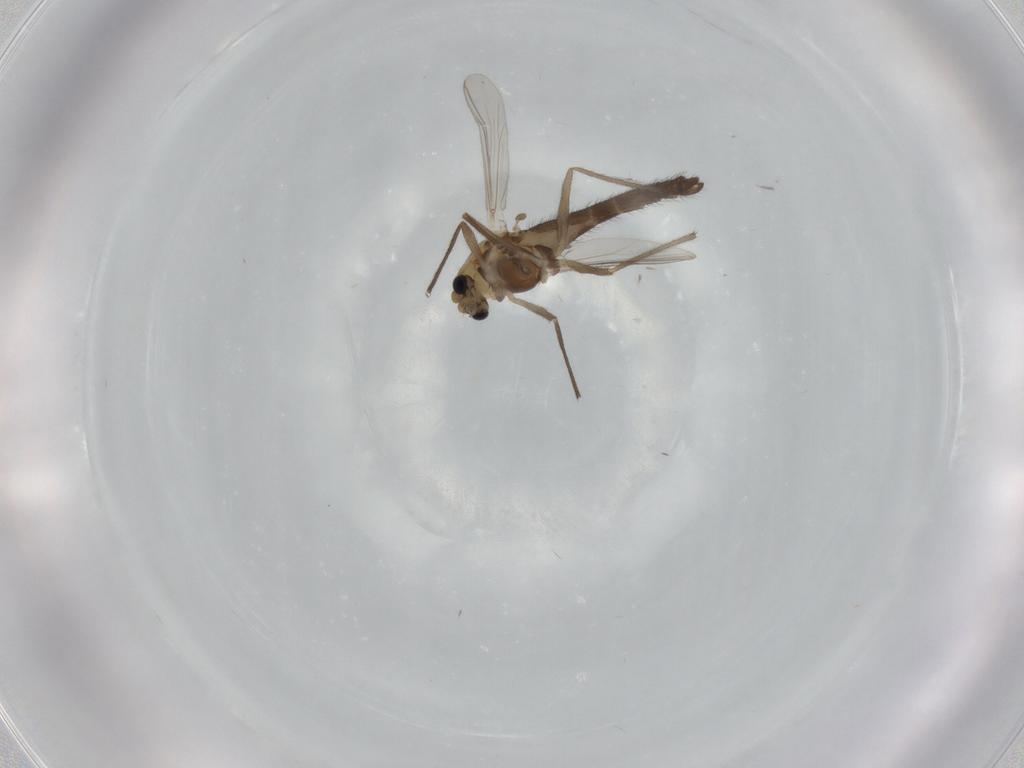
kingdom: Animalia
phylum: Arthropoda
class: Insecta
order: Diptera
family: Chironomidae
